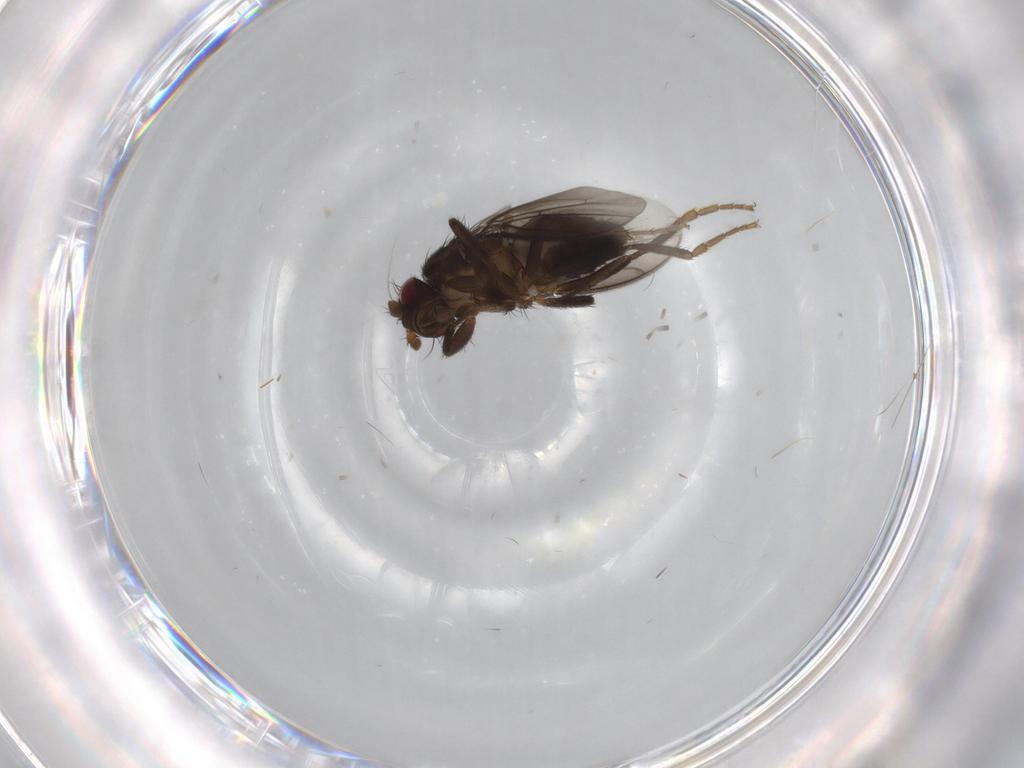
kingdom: Animalia
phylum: Arthropoda
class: Insecta
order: Diptera
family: Sphaeroceridae
